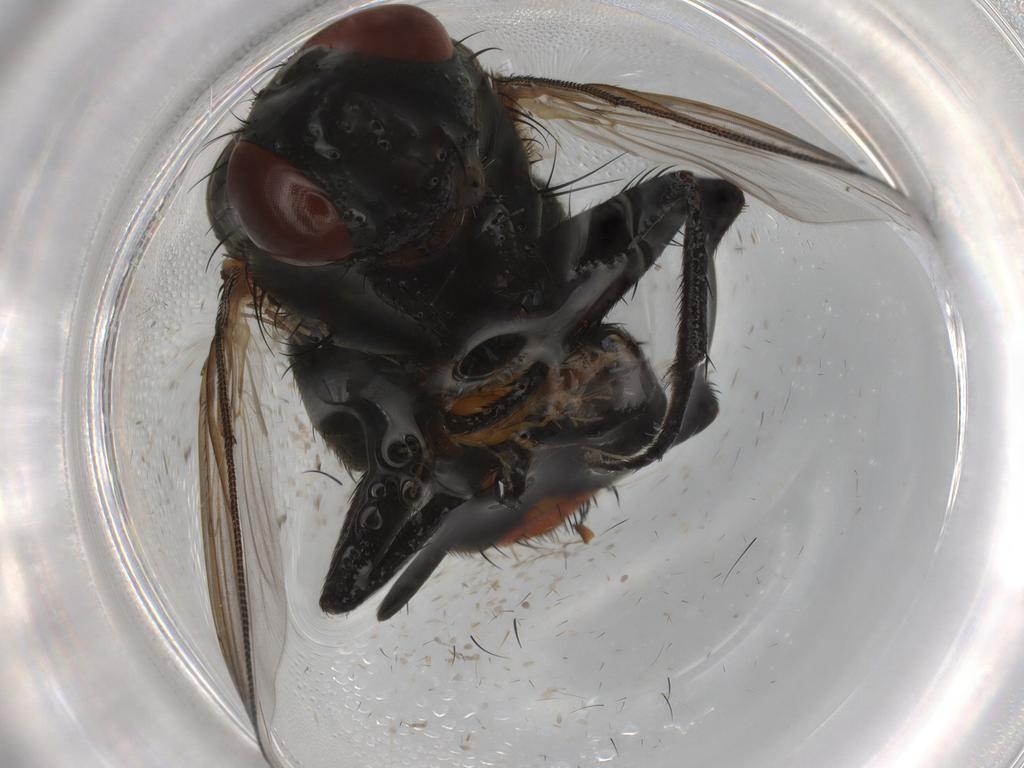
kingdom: Animalia
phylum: Arthropoda
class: Insecta
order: Diptera
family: Chironomidae
